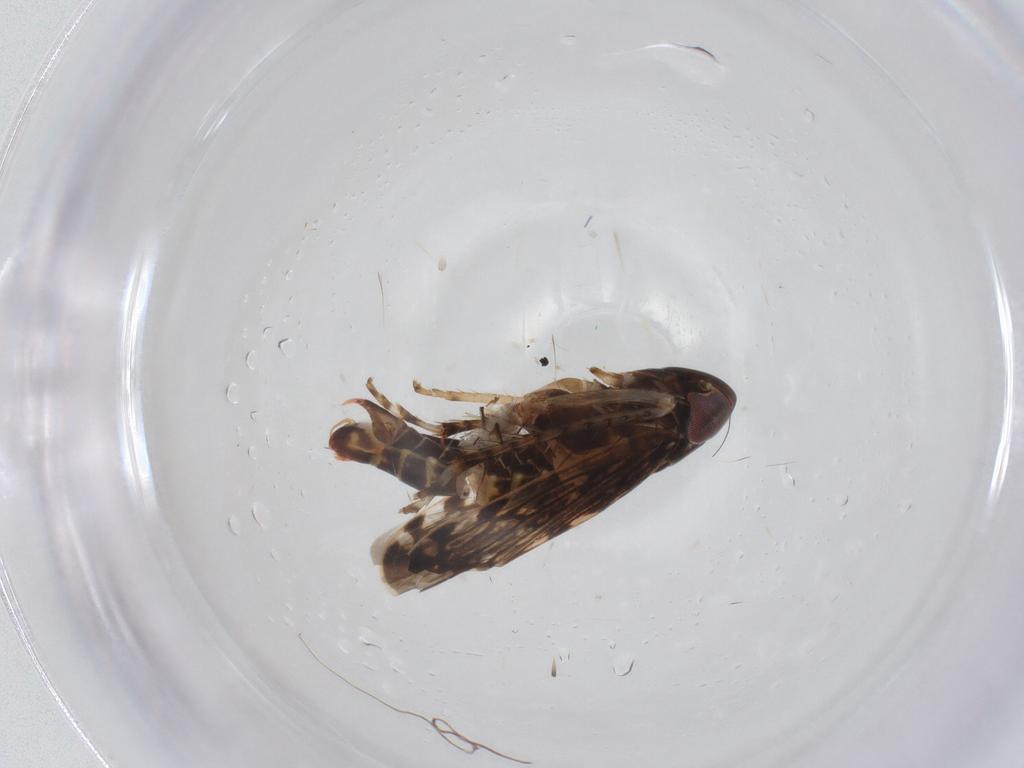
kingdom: Animalia
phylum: Arthropoda
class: Insecta
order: Hemiptera
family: Cicadellidae
